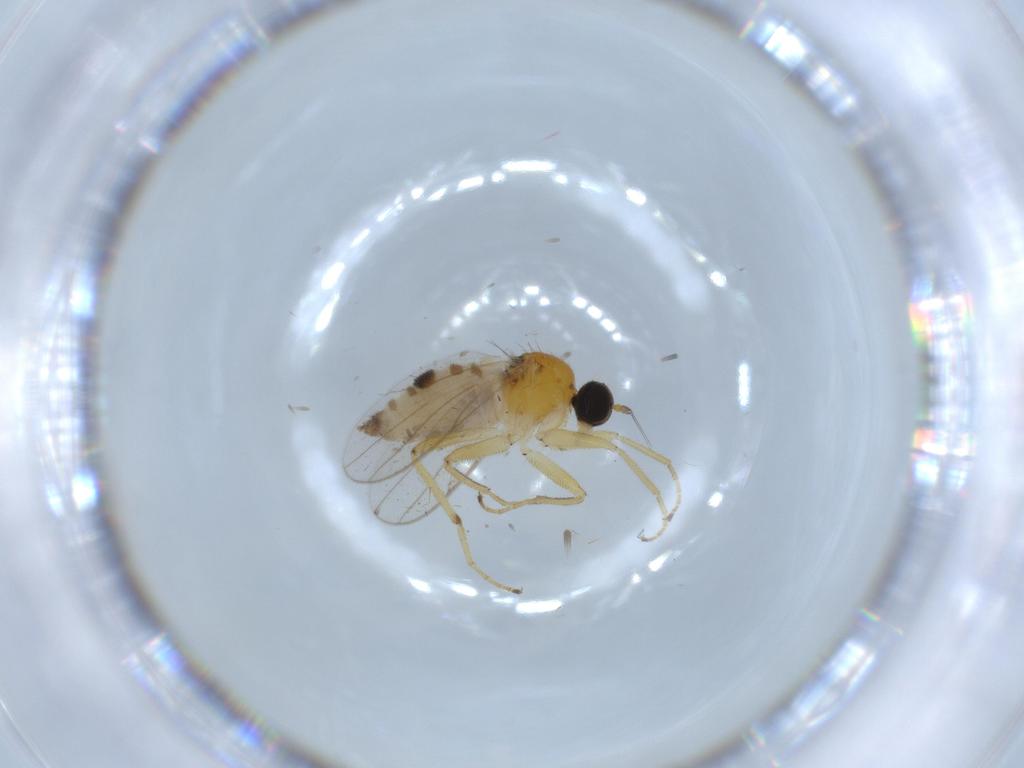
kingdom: Animalia
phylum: Arthropoda
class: Insecta
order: Diptera
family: Hybotidae
